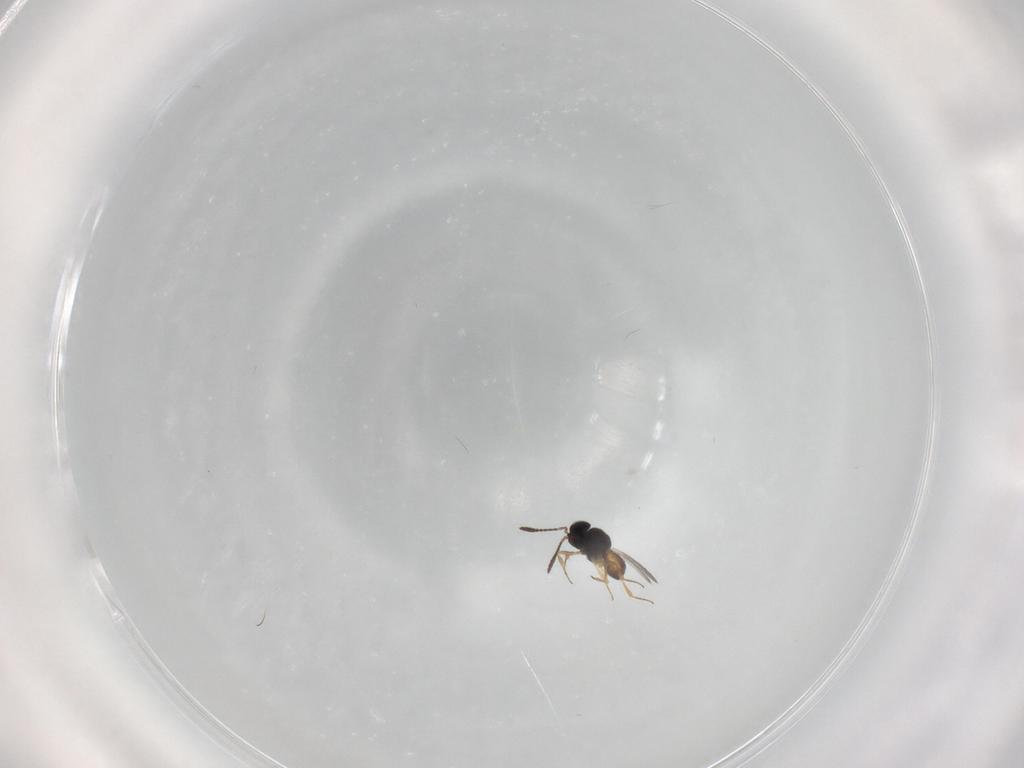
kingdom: Animalia
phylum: Arthropoda
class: Insecta
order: Hymenoptera
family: Scelionidae
